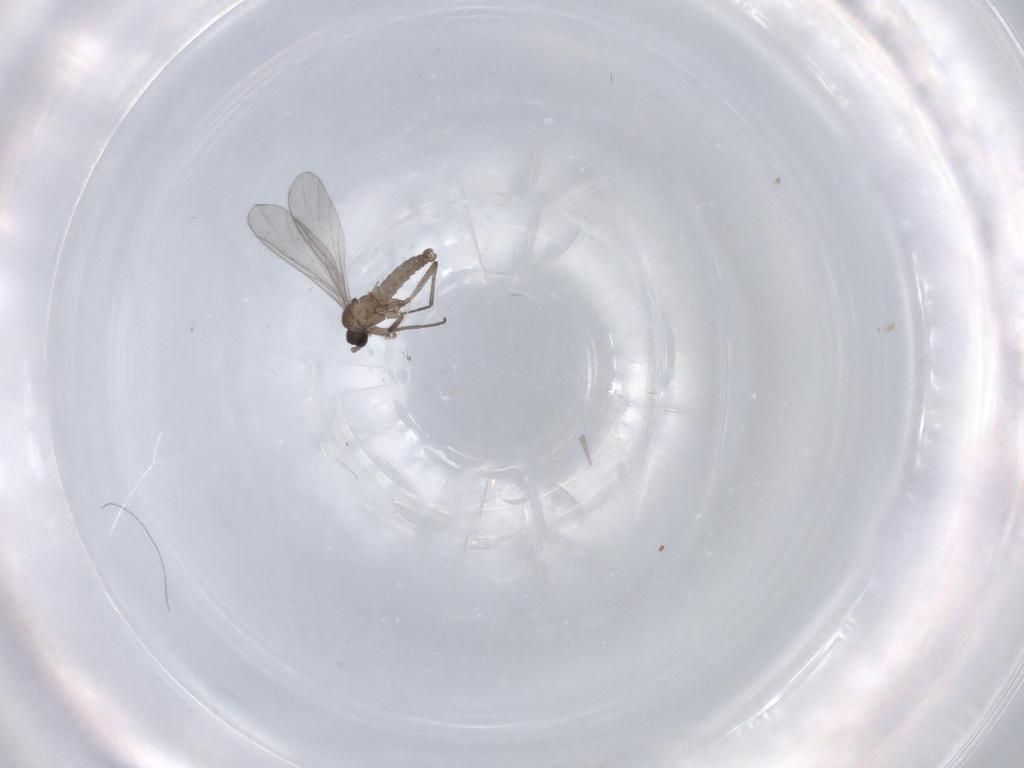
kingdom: Animalia
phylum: Arthropoda
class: Insecta
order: Diptera
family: Sciaridae
